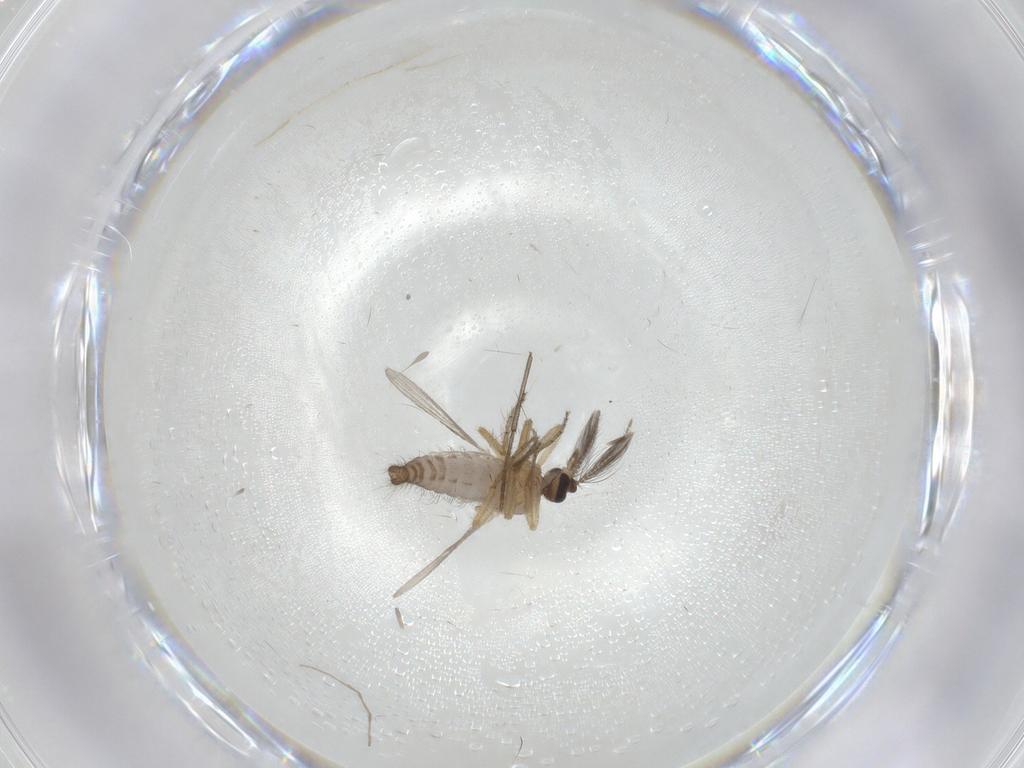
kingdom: Animalia
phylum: Arthropoda
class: Insecta
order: Diptera
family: Ceratopogonidae
